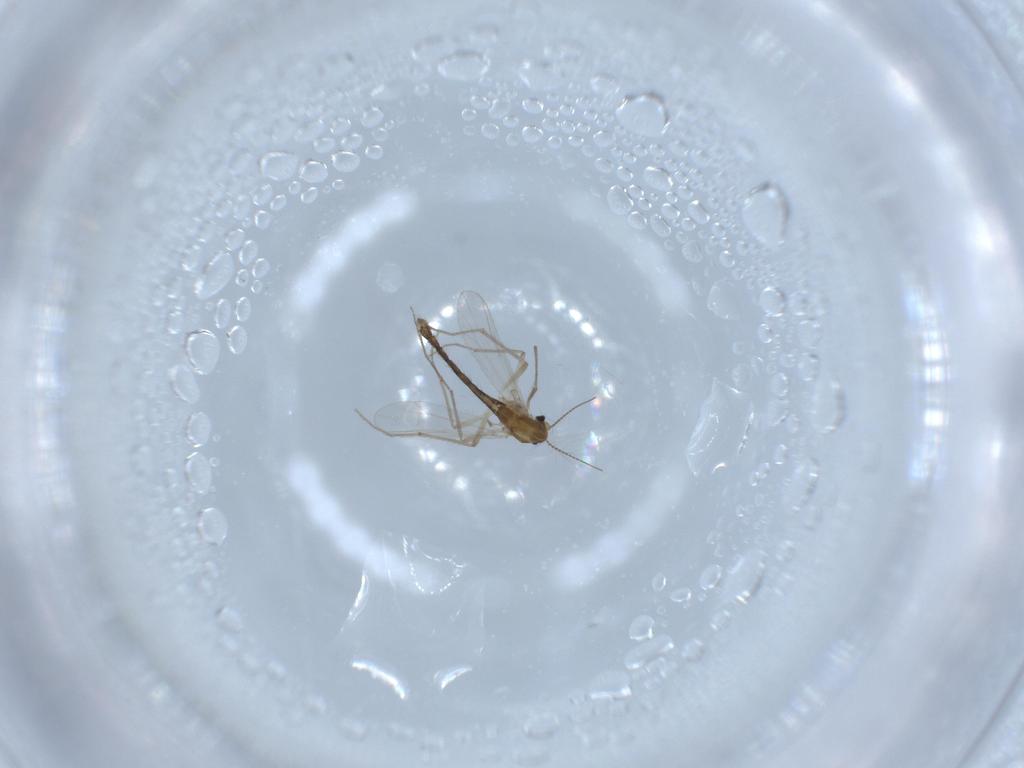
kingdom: Animalia
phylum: Arthropoda
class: Insecta
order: Diptera
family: Chironomidae
